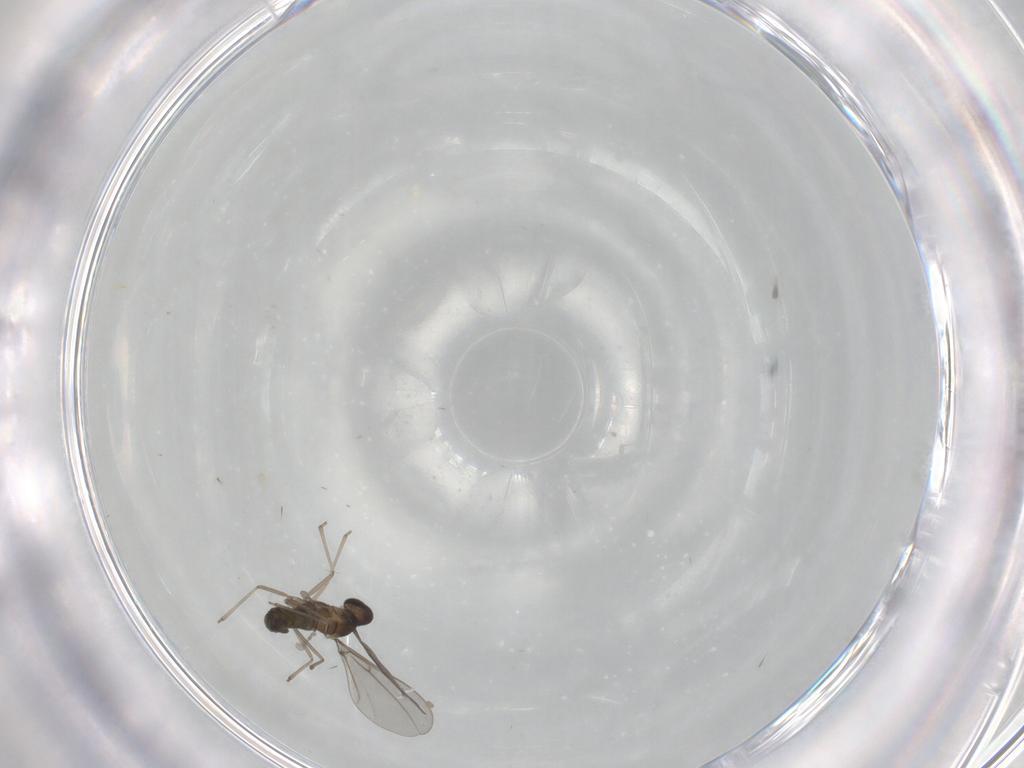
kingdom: Animalia
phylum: Arthropoda
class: Insecta
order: Diptera
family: Cecidomyiidae
